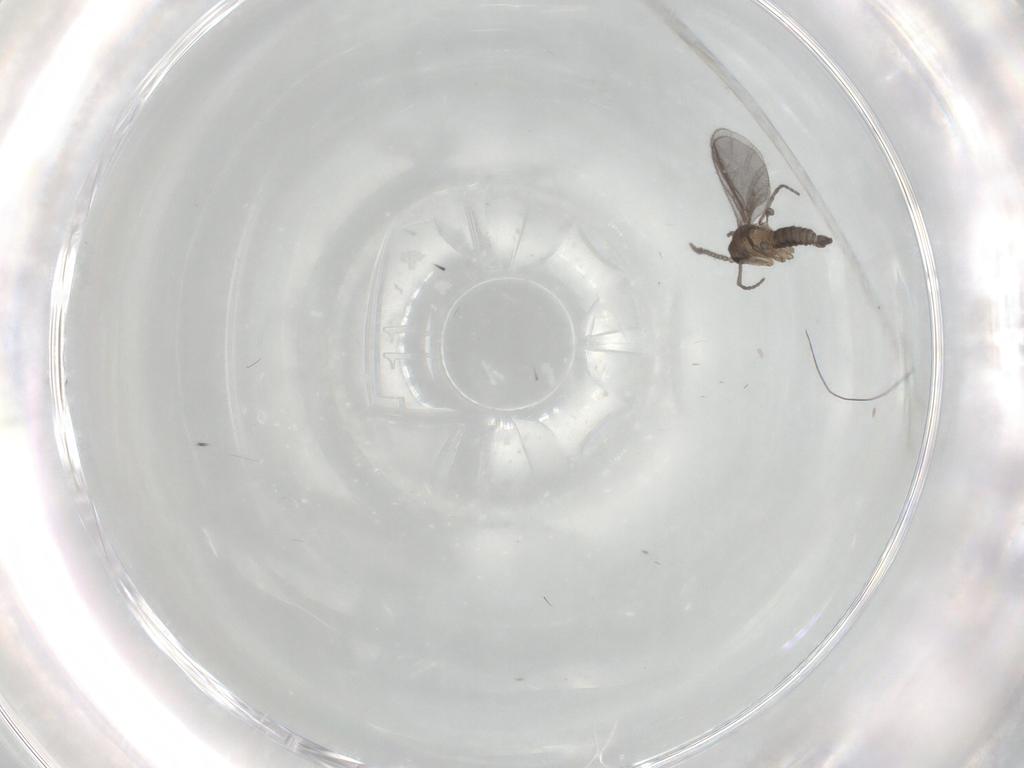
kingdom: Animalia
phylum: Arthropoda
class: Insecta
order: Diptera
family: Sciaridae
